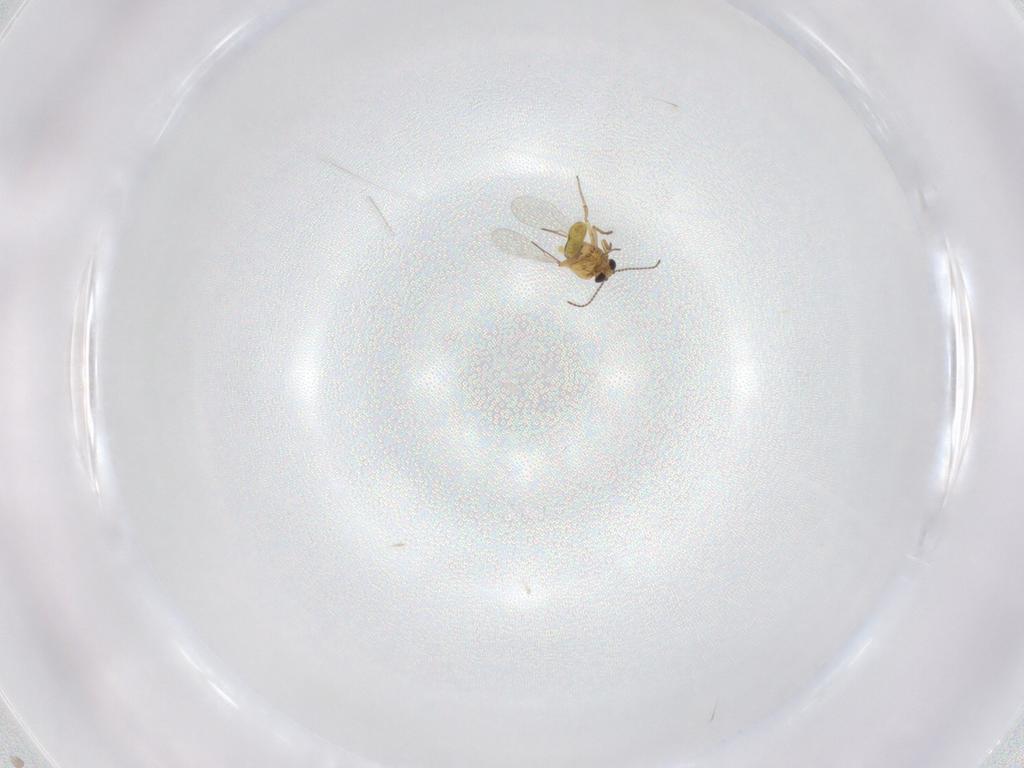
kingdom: Animalia
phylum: Arthropoda
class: Insecta
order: Diptera
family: Ceratopogonidae
